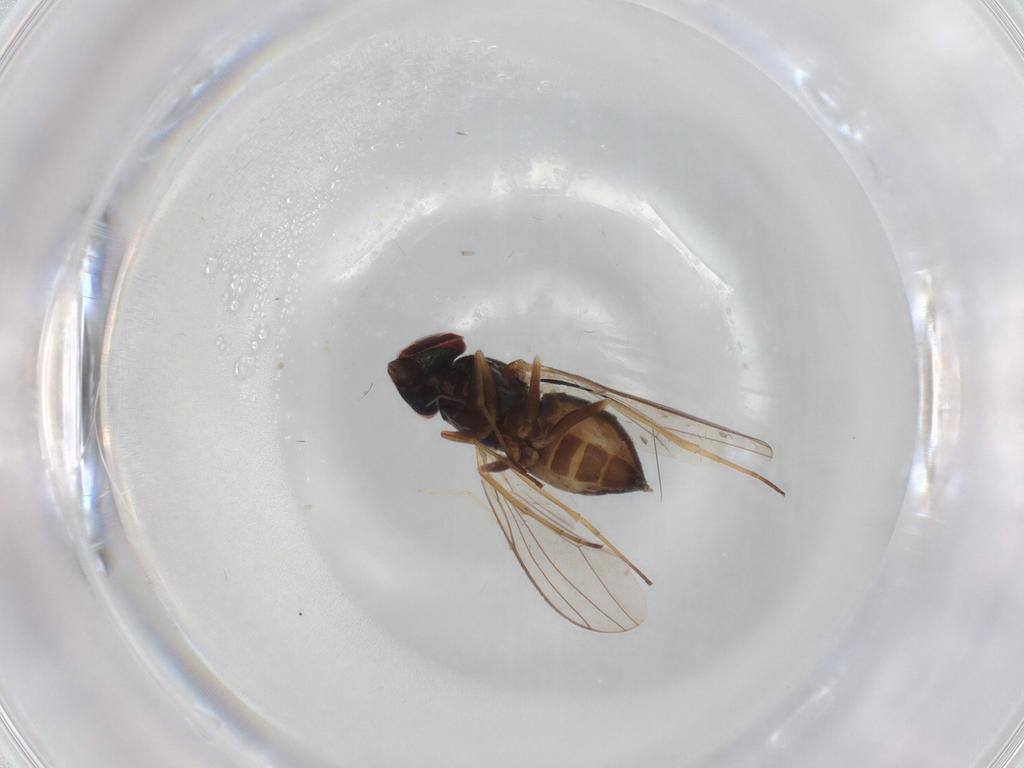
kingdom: Animalia
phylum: Arthropoda
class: Insecta
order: Diptera
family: Dolichopodidae
